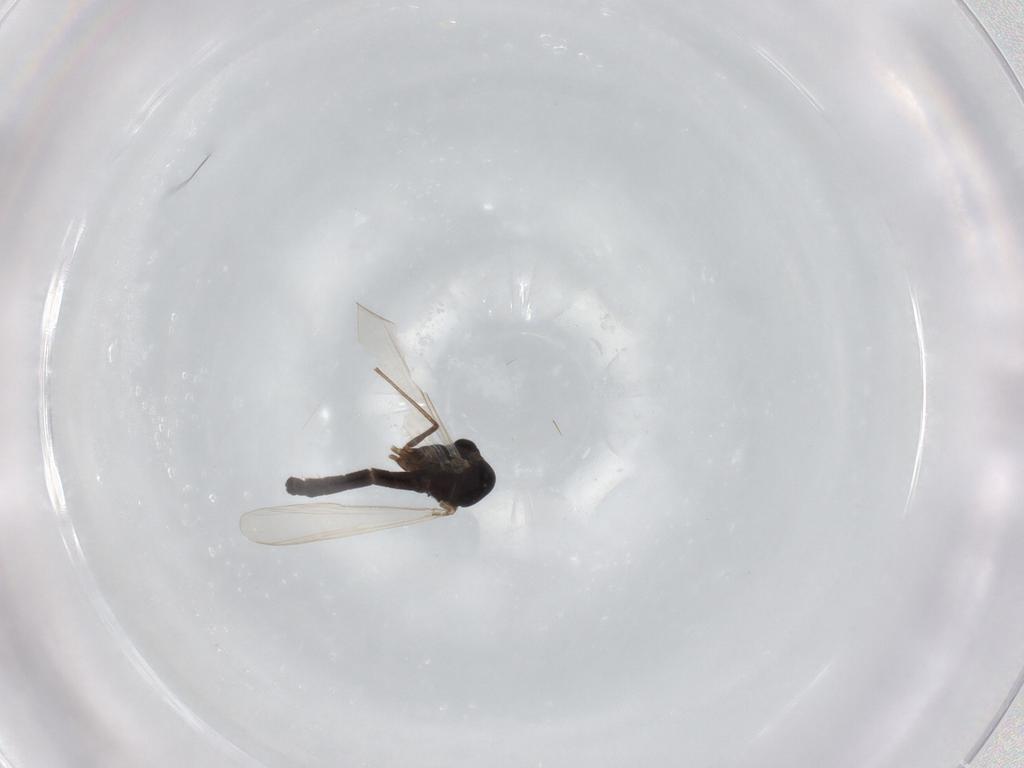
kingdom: Animalia
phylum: Arthropoda
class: Insecta
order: Diptera
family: Chironomidae
